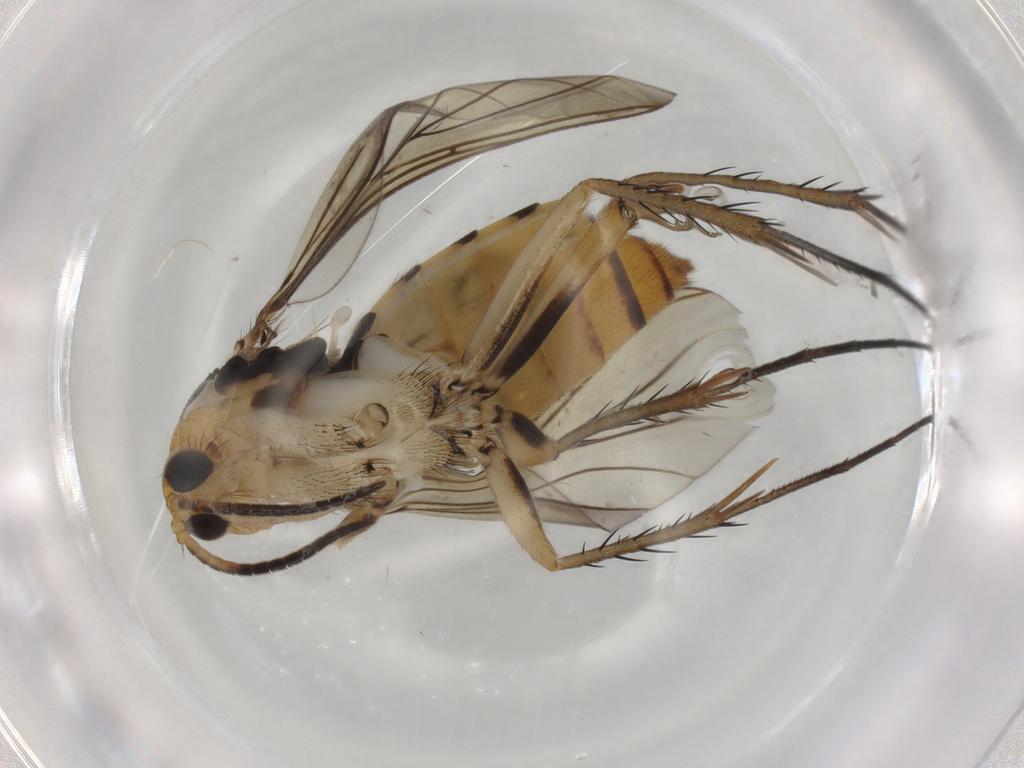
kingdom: Animalia
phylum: Arthropoda
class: Insecta
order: Diptera
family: Mycetophilidae
